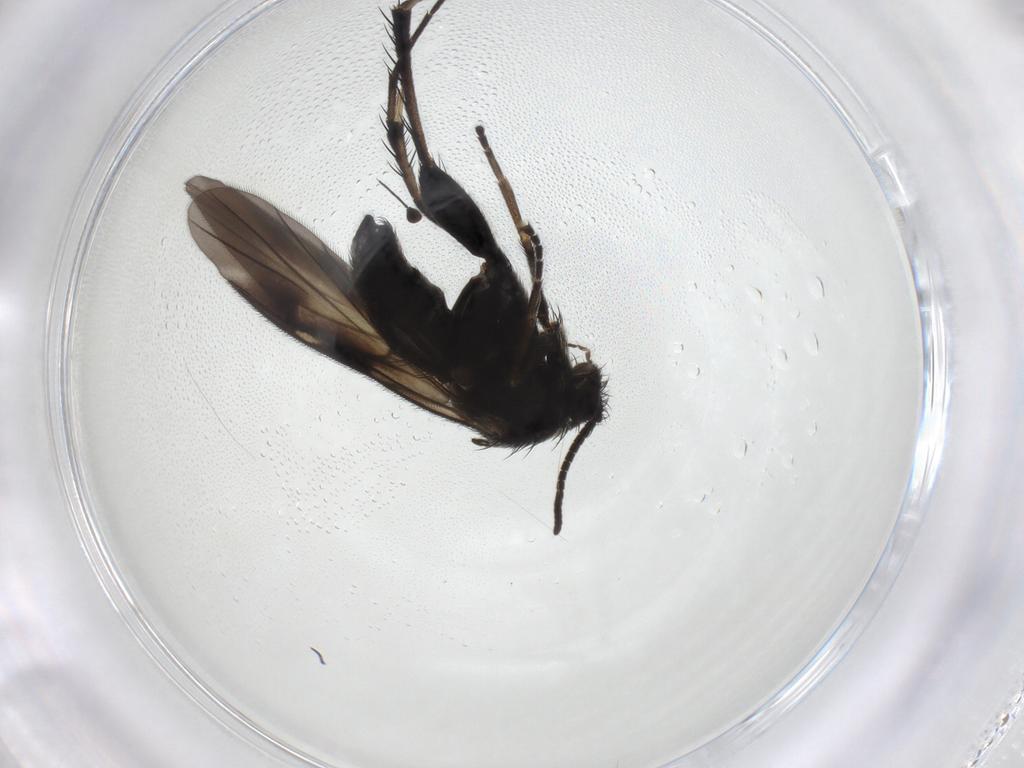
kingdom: Animalia
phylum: Arthropoda
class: Insecta
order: Diptera
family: Mycetophilidae
